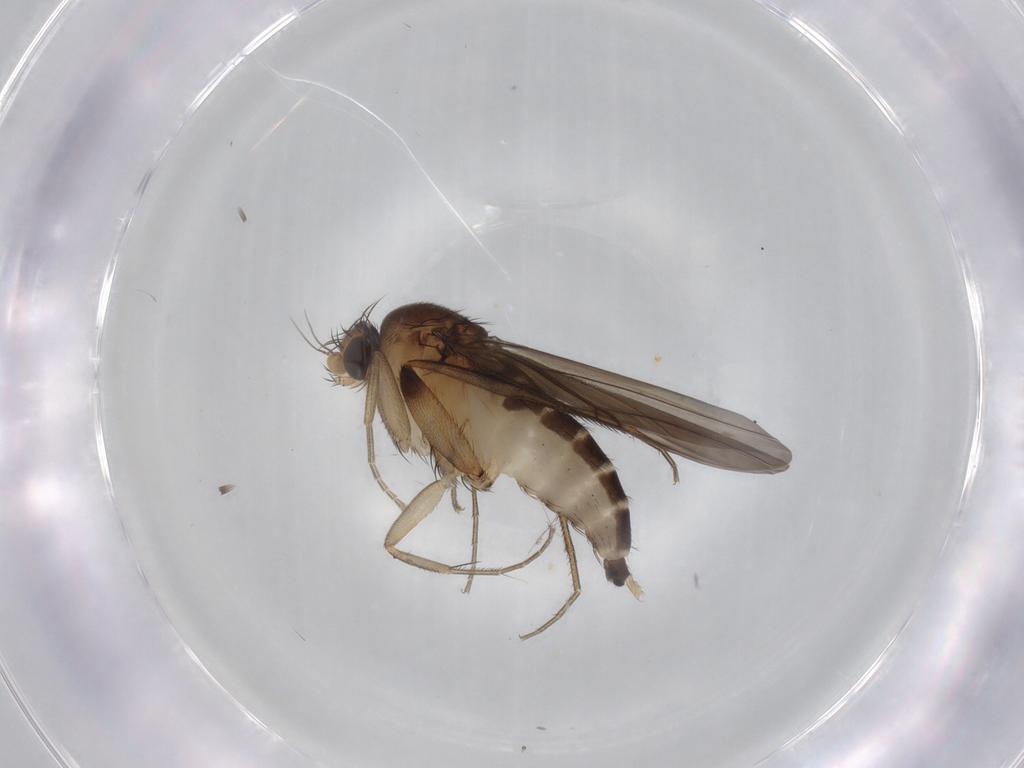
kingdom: Animalia
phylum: Arthropoda
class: Insecta
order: Diptera
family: Phoridae
